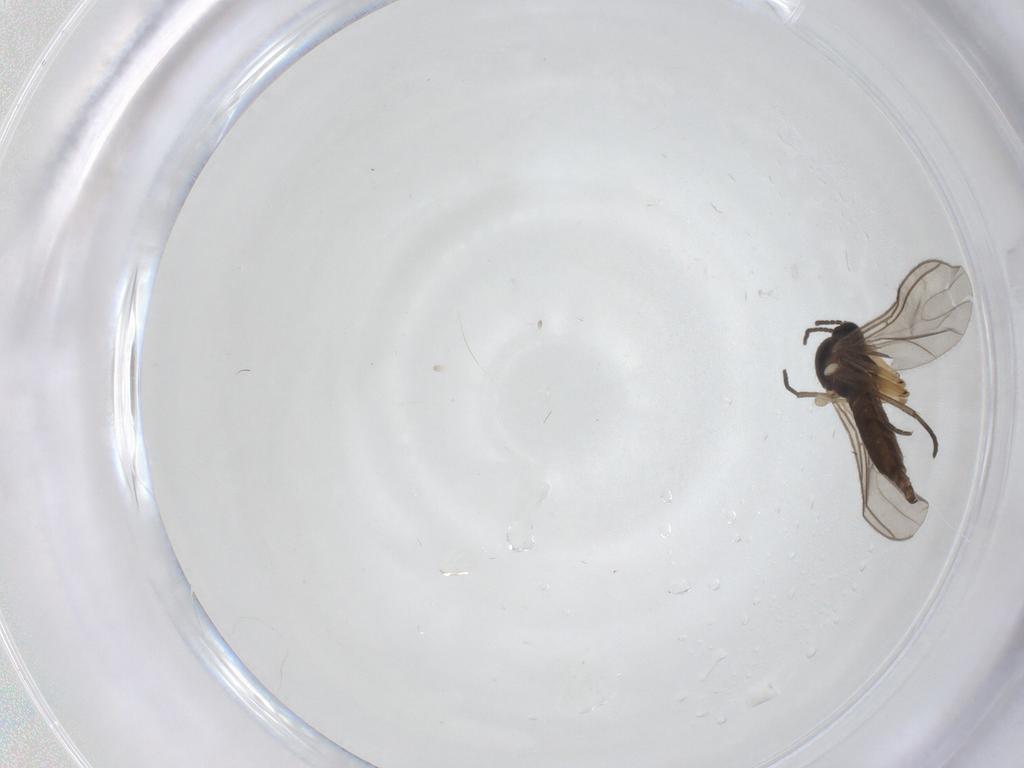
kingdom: Animalia
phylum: Arthropoda
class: Insecta
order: Diptera
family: Sciaridae
